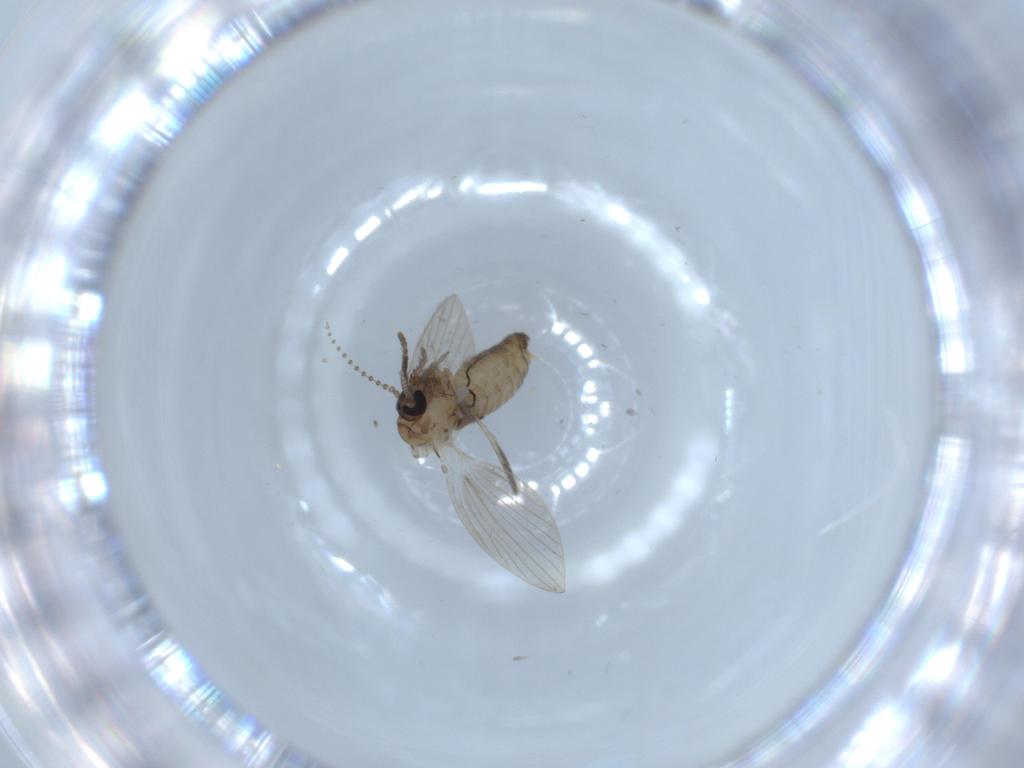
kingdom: Animalia
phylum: Arthropoda
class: Insecta
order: Diptera
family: Psychodidae
